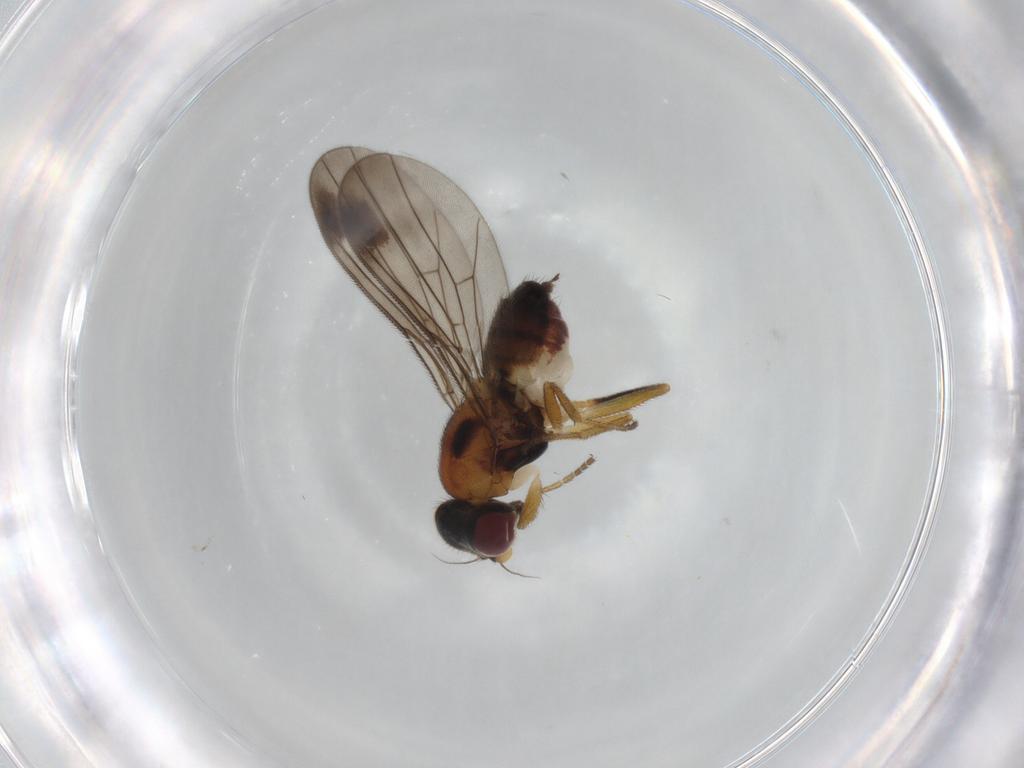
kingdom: Animalia
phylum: Arthropoda
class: Insecta
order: Diptera
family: Chloropidae
